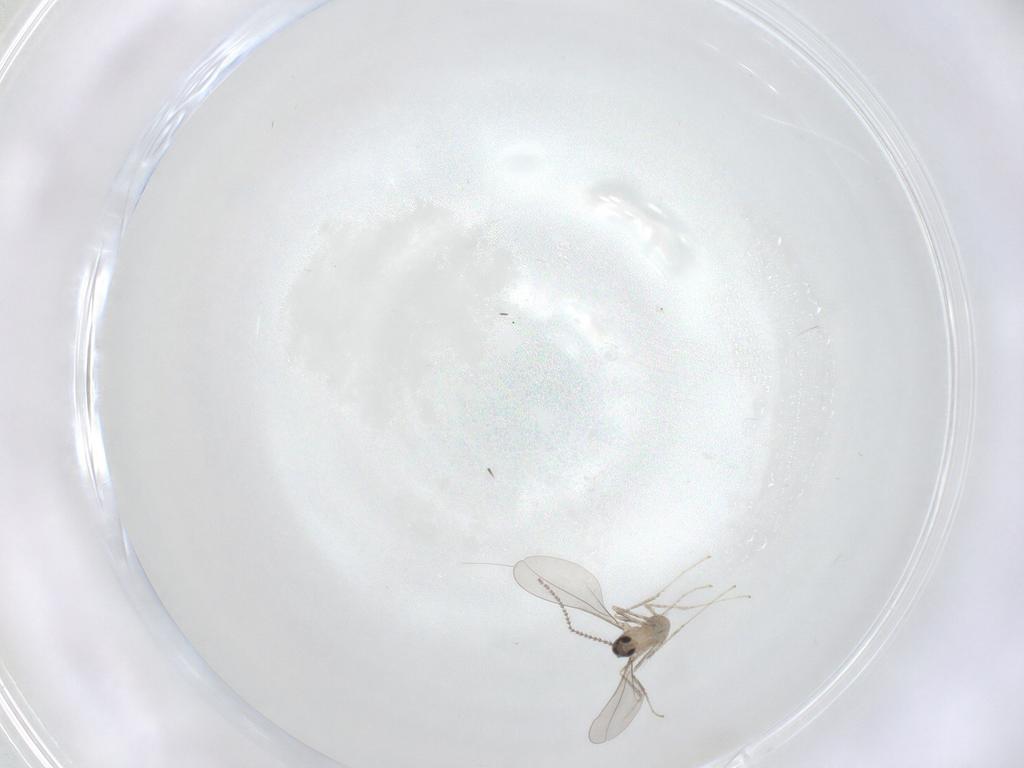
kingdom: Animalia
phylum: Arthropoda
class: Insecta
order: Diptera
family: Cecidomyiidae
